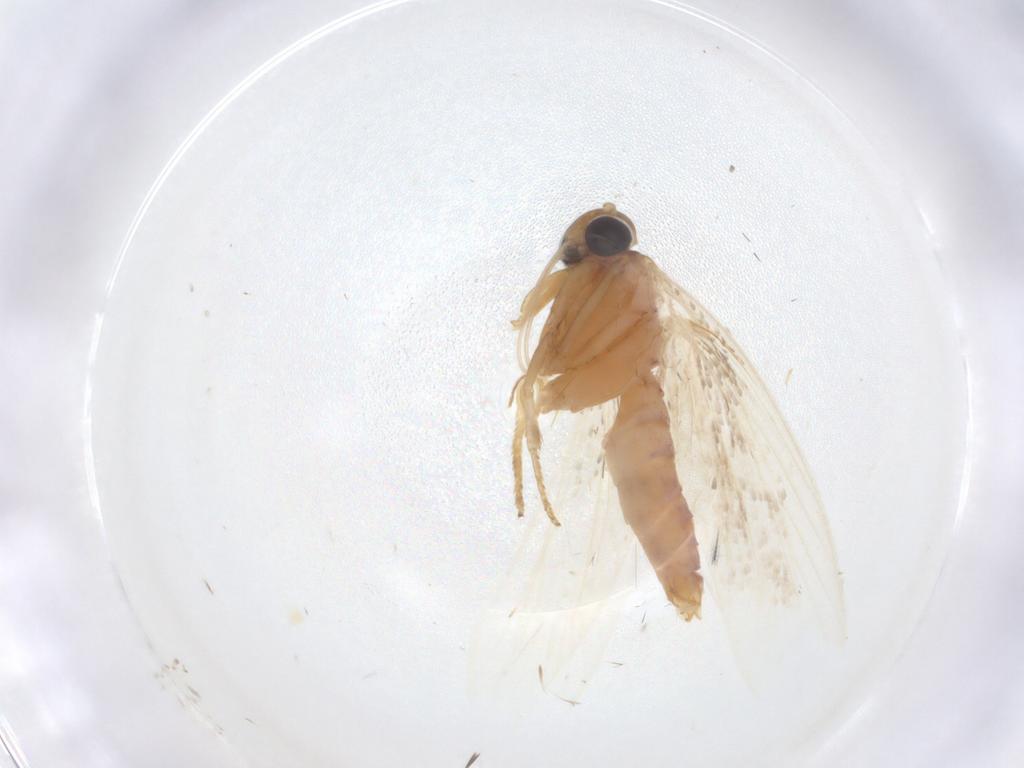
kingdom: Animalia
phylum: Arthropoda
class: Insecta
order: Lepidoptera
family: Oecophoridae
